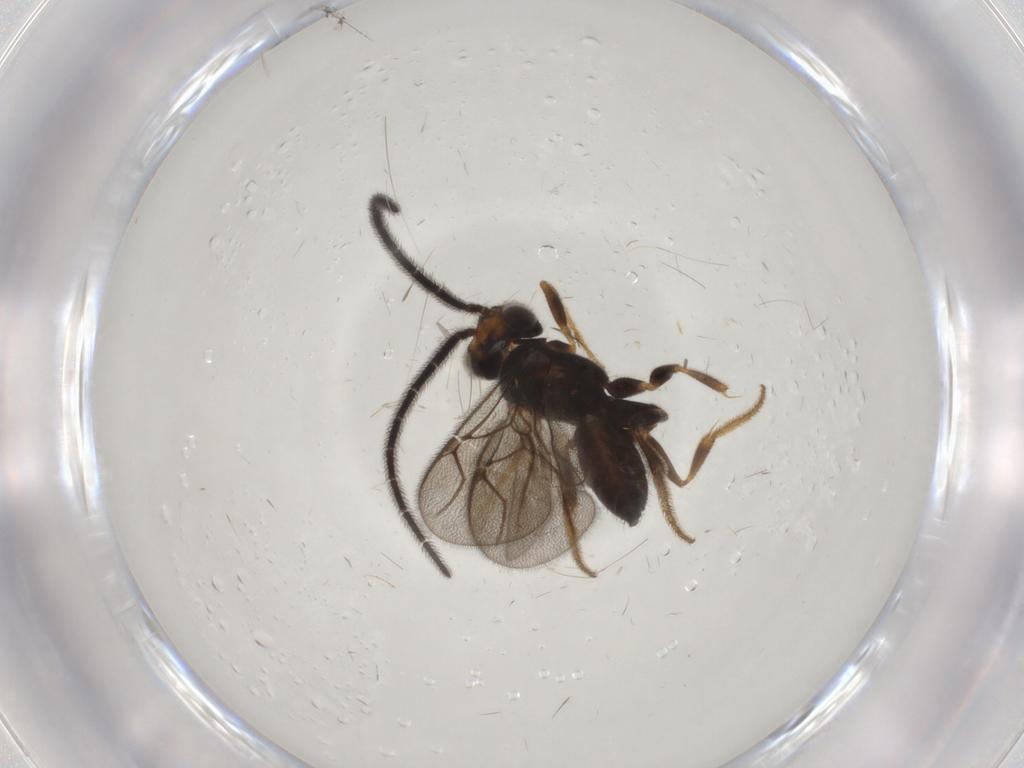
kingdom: Animalia
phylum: Arthropoda
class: Insecta
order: Hymenoptera
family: Dryinidae
